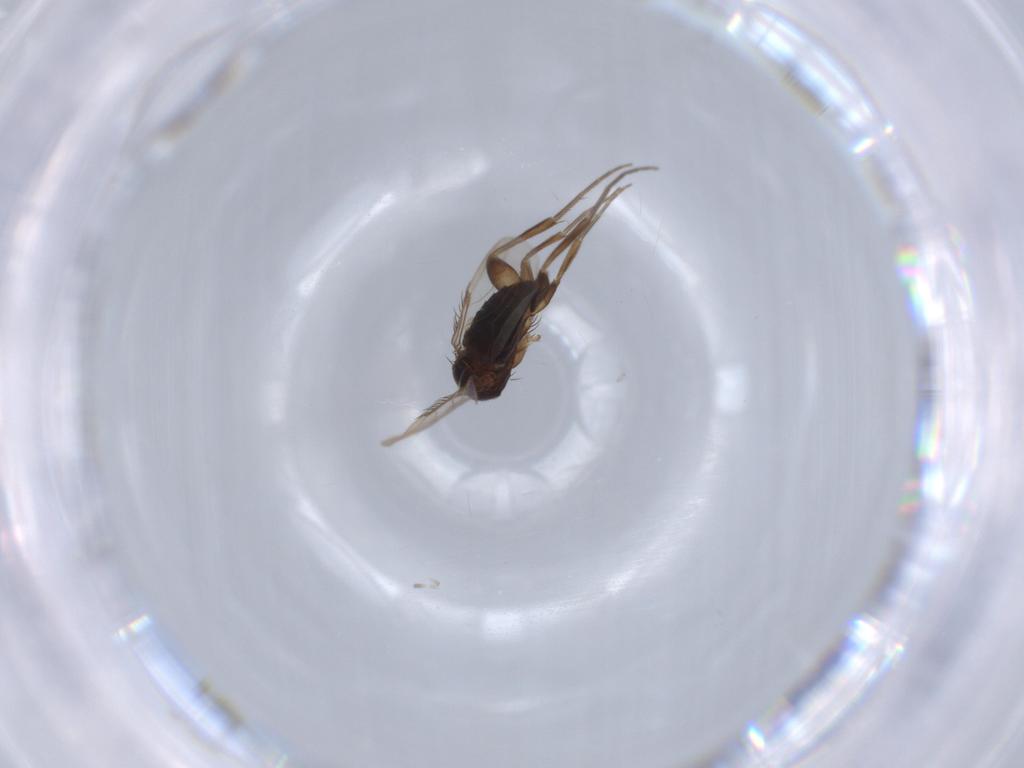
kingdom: Animalia
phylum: Arthropoda
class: Insecta
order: Diptera
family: Phoridae
